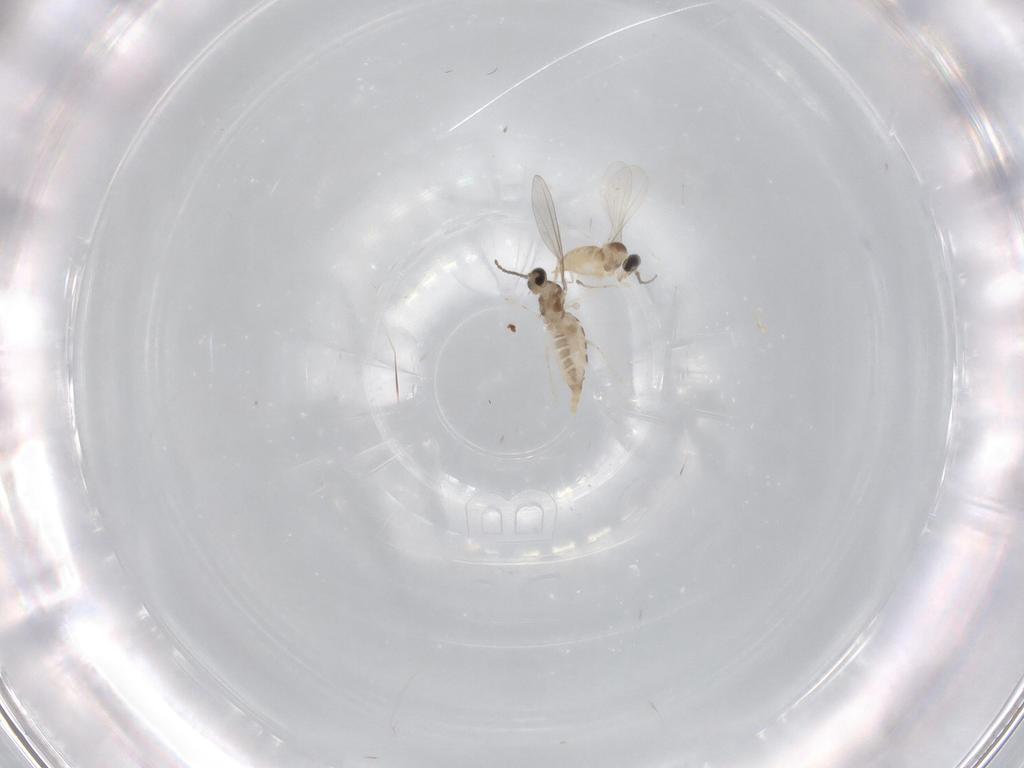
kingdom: Animalia
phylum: Arthropoda
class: Insecta
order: Diptera
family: Cecidomyiidae
